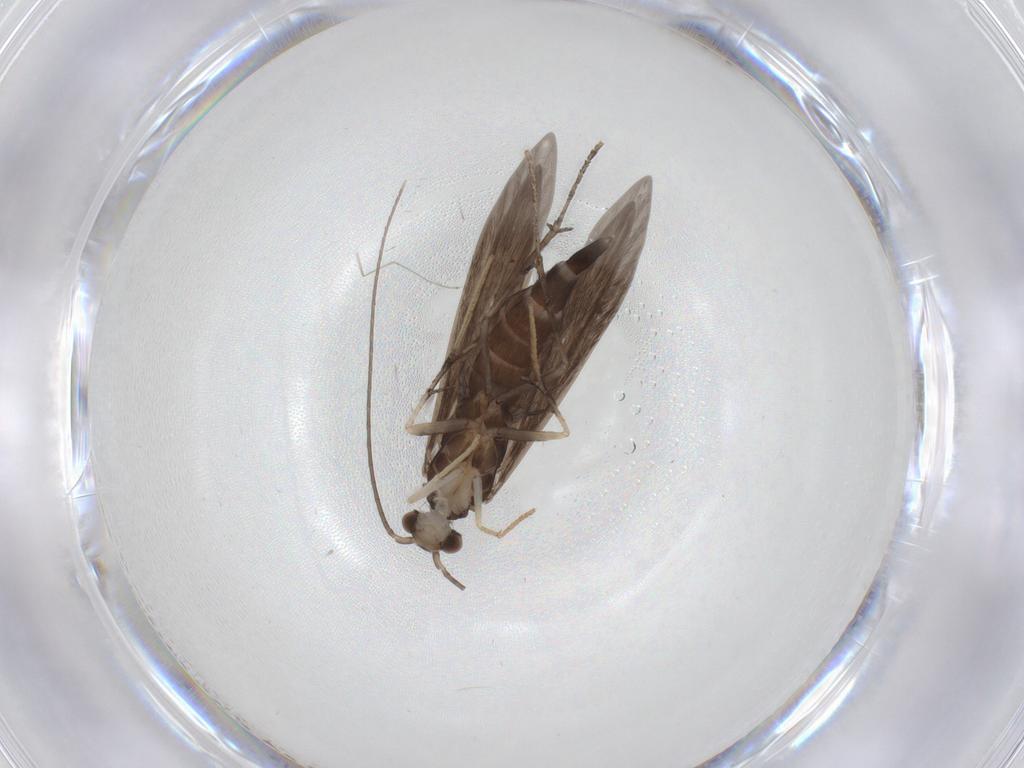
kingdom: Animalia
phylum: Arthropoda
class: Insecta
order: Trichoptera
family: Xiphocentronidae
